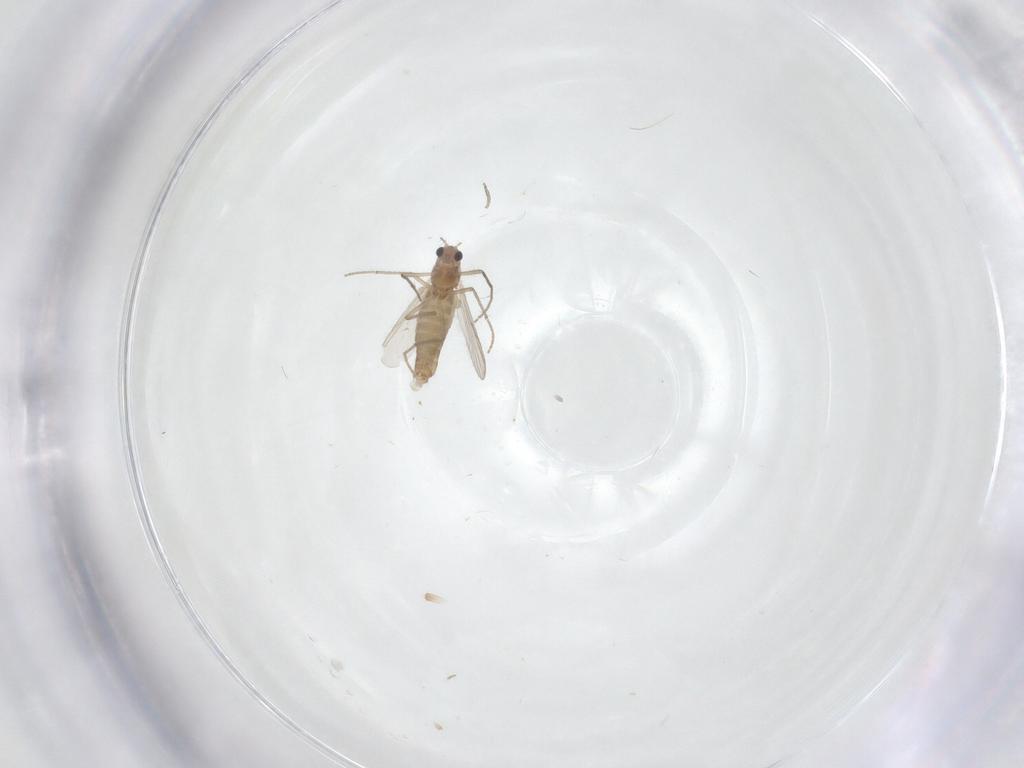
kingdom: Animalia
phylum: Arthropoda
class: Insecta
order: Diptera
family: Chironomidae
